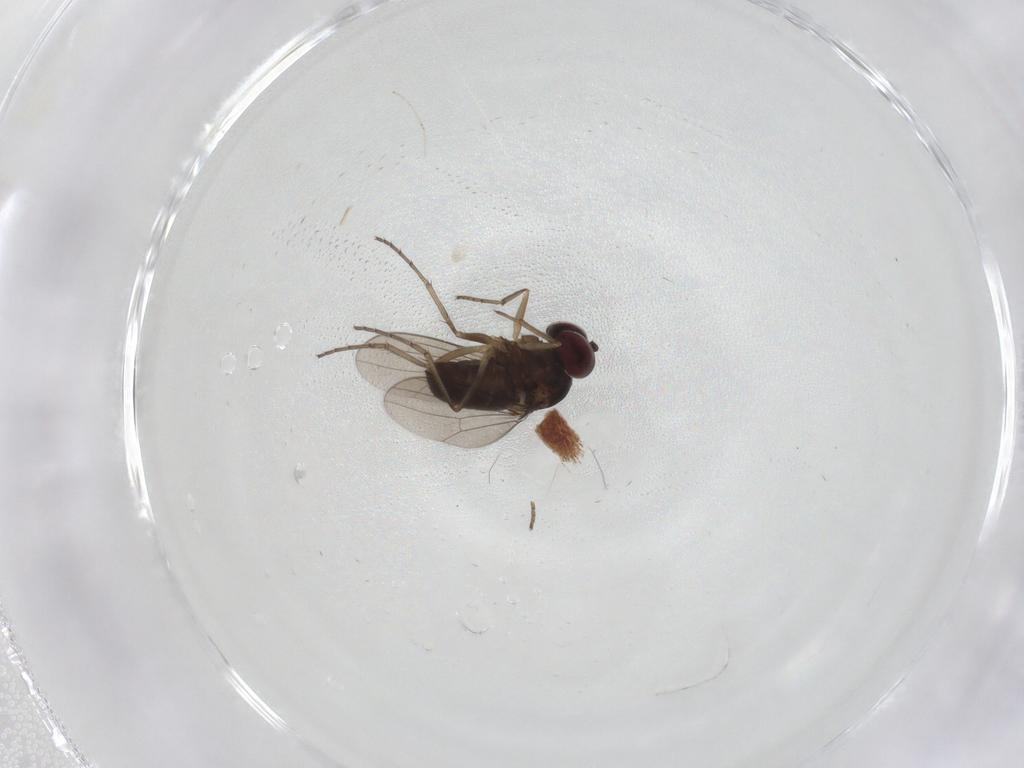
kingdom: Animalia
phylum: Arthropoda
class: Insecta
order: Diptera
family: Dolichopodidae
